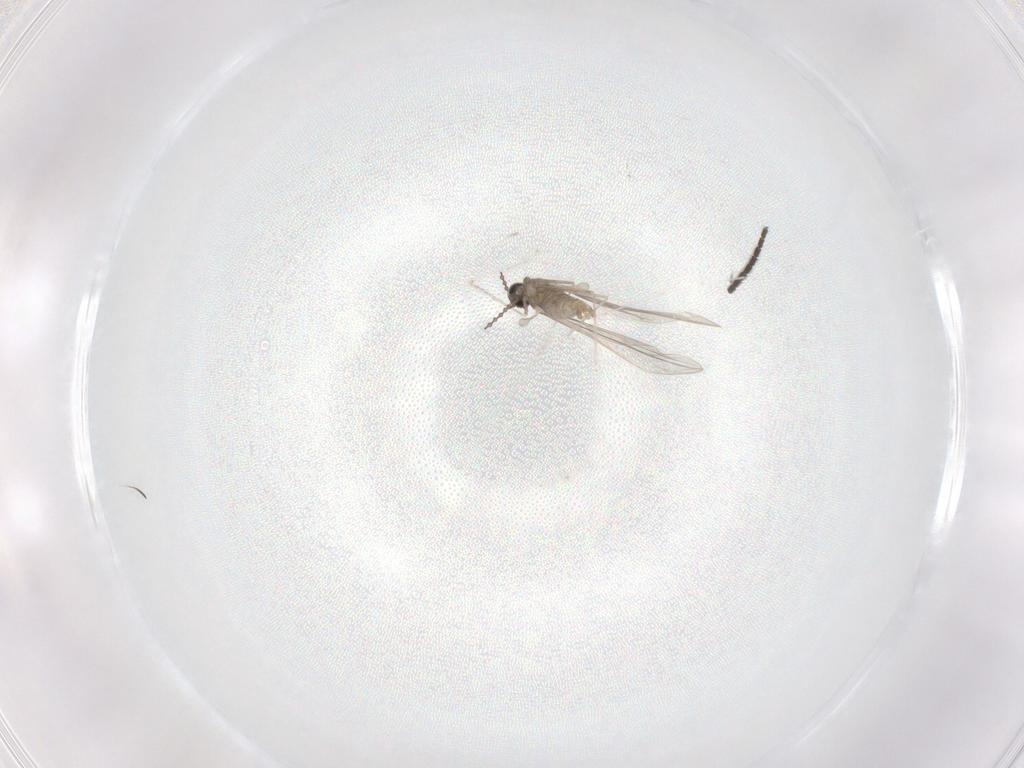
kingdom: Animalia
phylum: Arthropoda
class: Insecta
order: Diptera
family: Sciaridae
